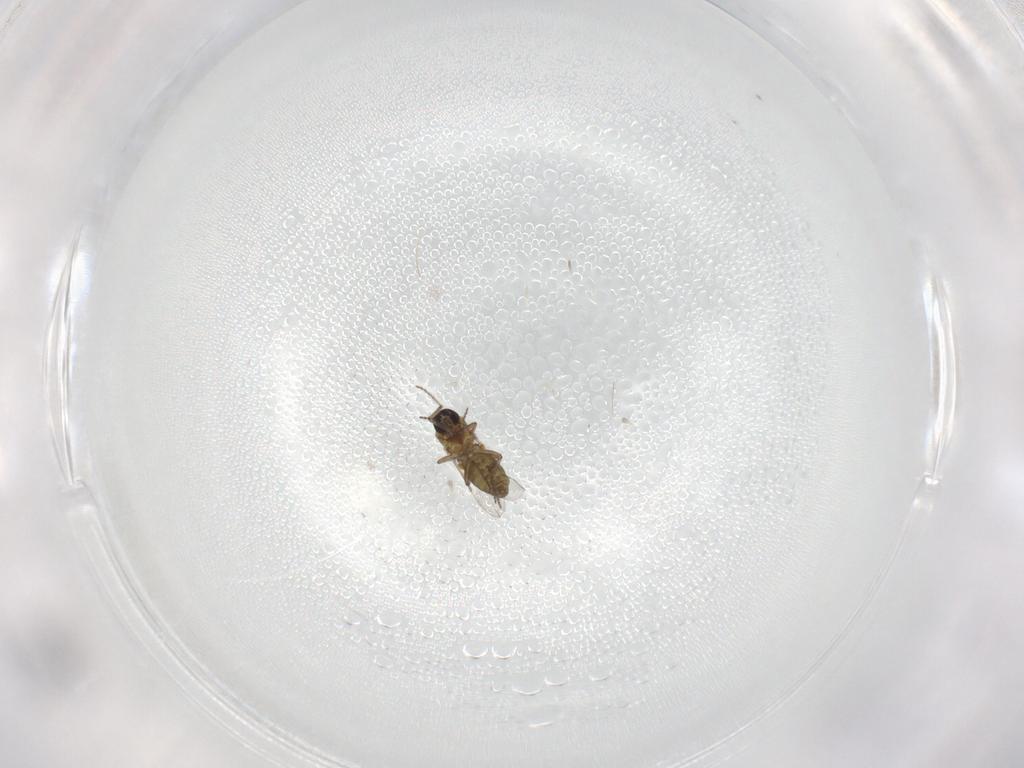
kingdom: Animalia
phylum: Arthropoda
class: Insecta
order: Diptera
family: Ceratopogonidae
